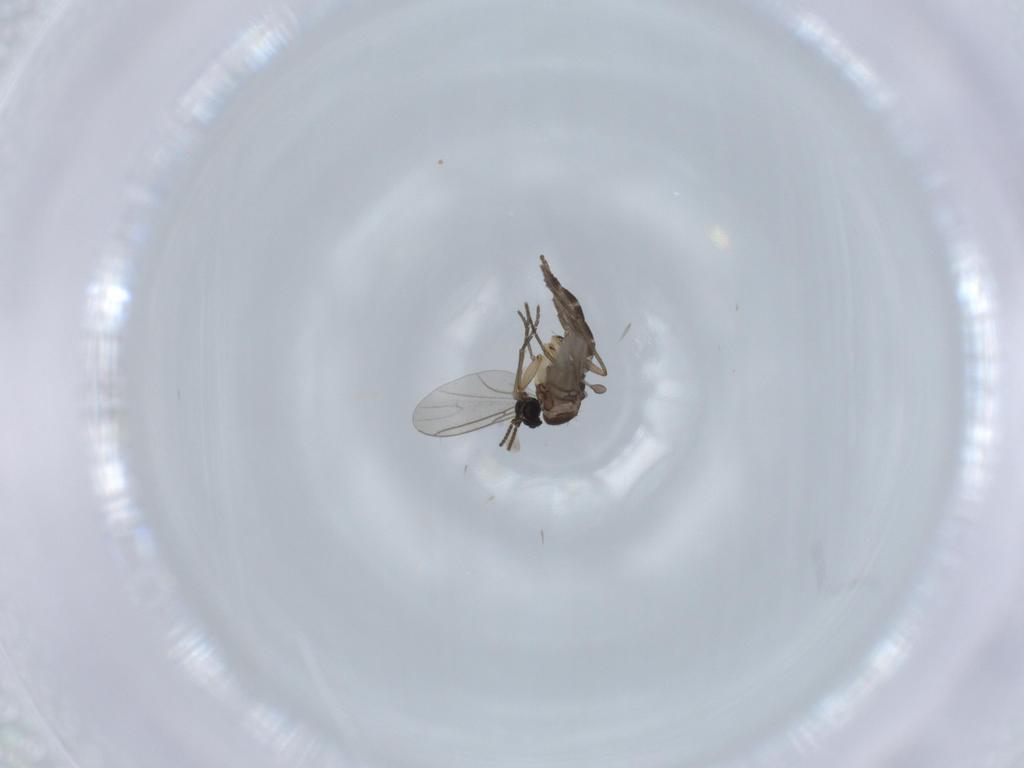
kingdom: Animalia
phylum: Arthropoda
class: Insecta
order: Diptera
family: Sciaridae
